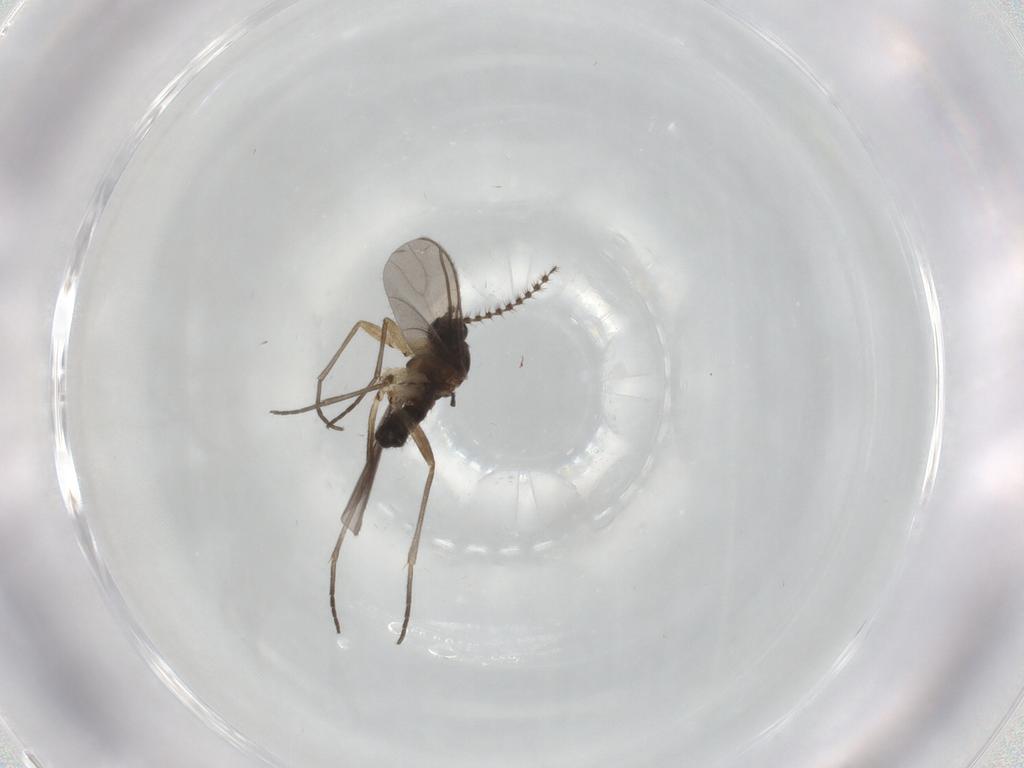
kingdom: Animalia
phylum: Arthropoda
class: Insecta
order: Diptera
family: Sciaridae
